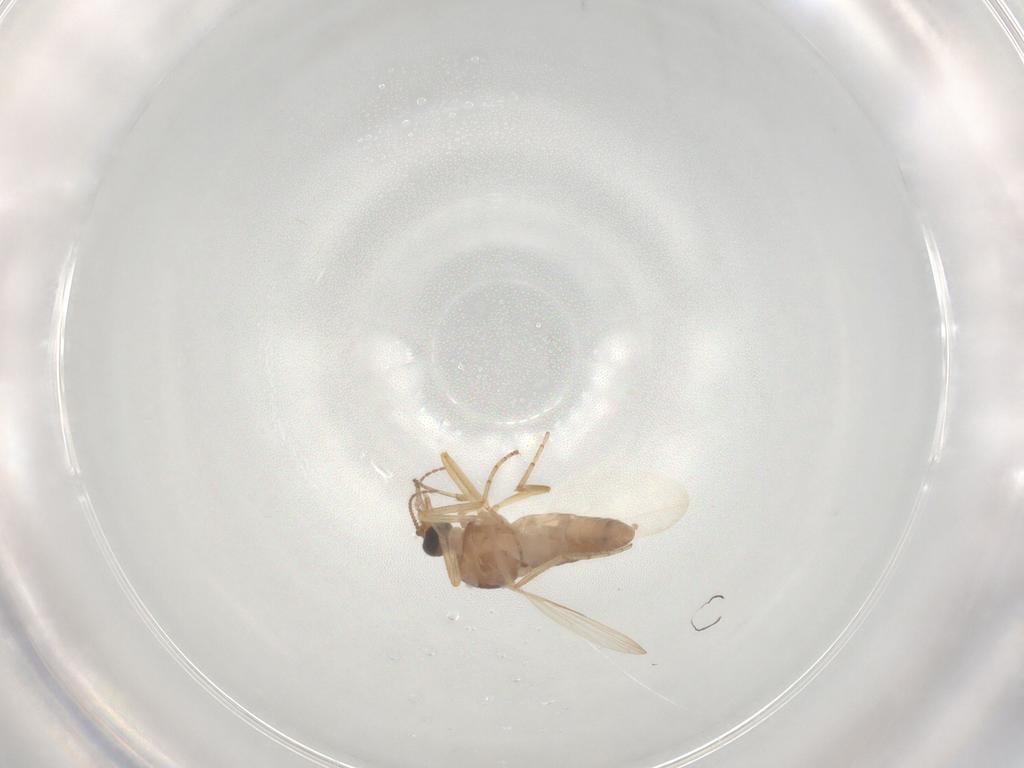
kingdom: Animalia
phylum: Arthropoda
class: Insecta
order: Diptera
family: Ceratopogonidae
